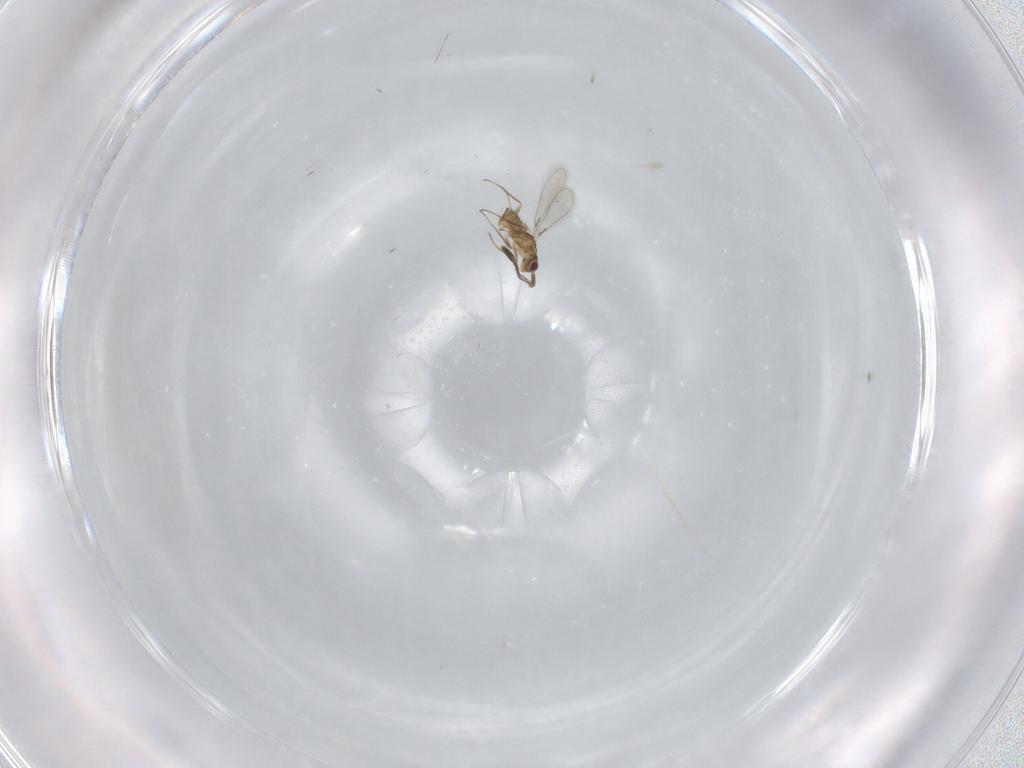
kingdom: Animalia
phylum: Arthropoda
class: Insecta
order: Hymenoptera
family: Braconidae
